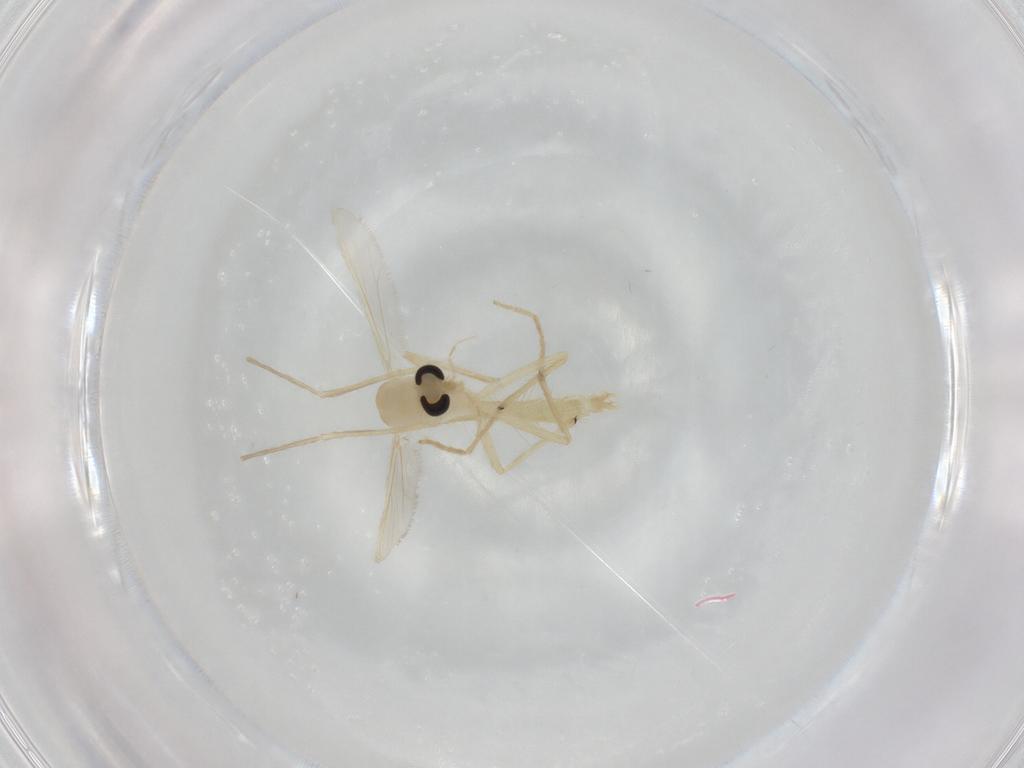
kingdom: Animalia
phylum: Arthropoda
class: Insecta
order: Diptera
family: Chironomidae
